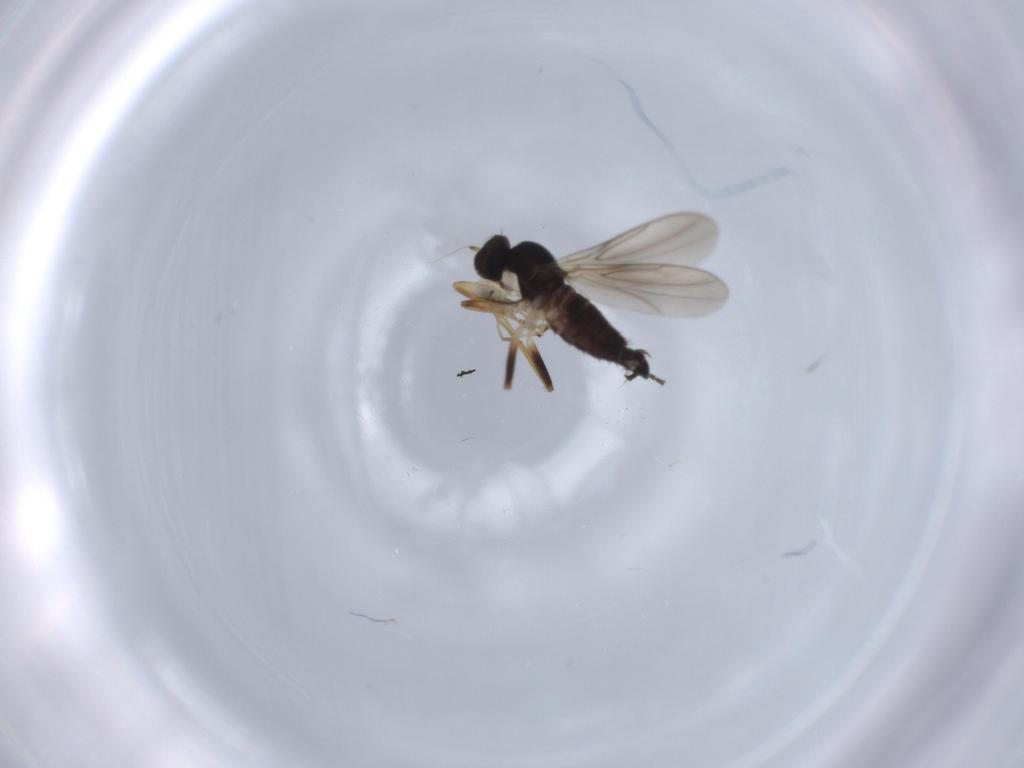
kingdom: Animalia
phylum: Arthropoda
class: Insecta
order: Diptera
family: Hybotidae
